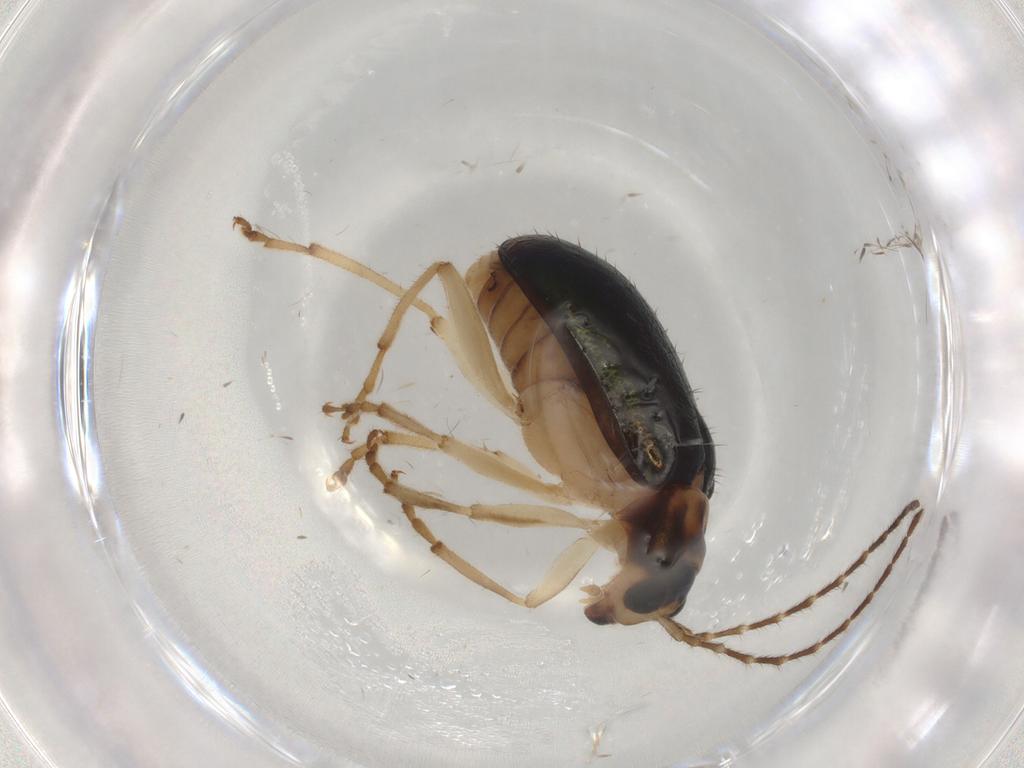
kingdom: Animalia
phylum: Arthropoda
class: Insecta
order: Coleoptera
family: Chrysomelidae
